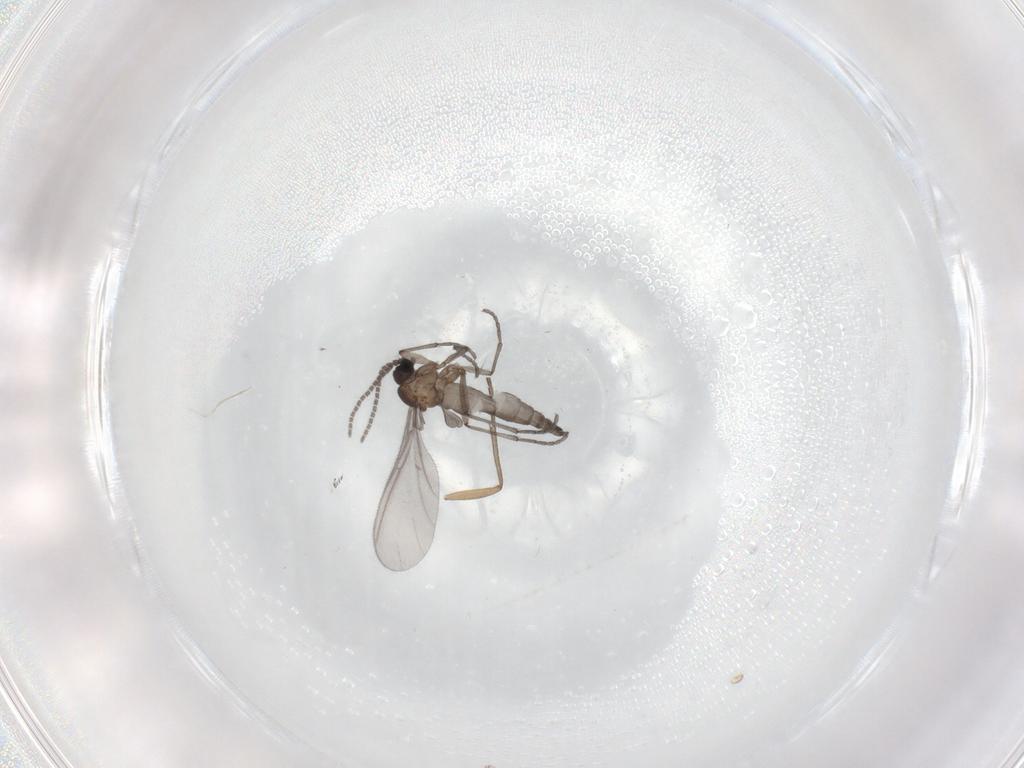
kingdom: Animalia
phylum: Arthropoda
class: Insecta
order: Diptera
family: Sciaridae
